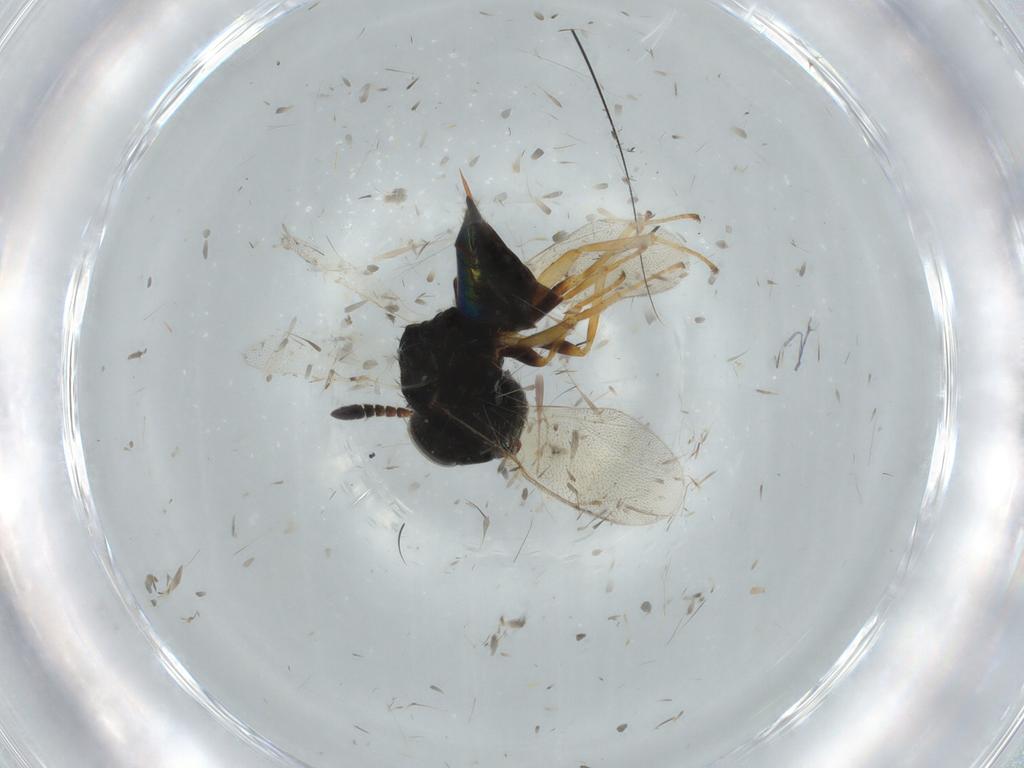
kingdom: Animalia
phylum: Arthropoda
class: Insecta
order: Hymenoptera
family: Pteromalidae
